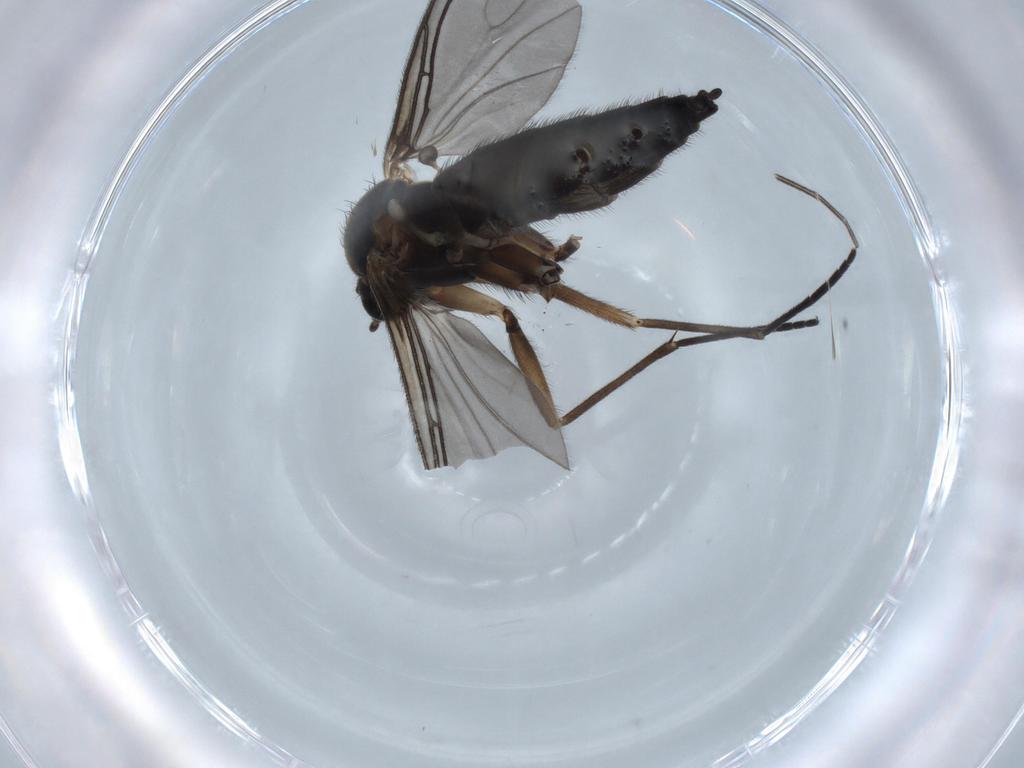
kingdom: Animalia
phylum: Arthropoda
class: Insecta
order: Diptera
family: Sciaridae
